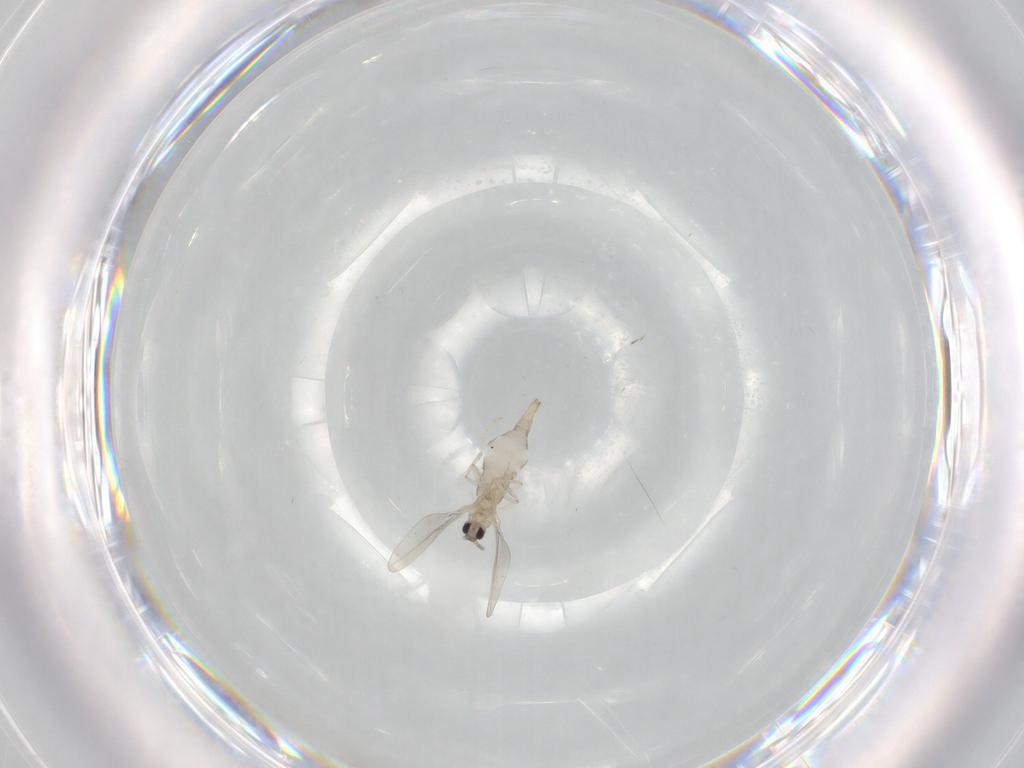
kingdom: Animalia
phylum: Arthropoda
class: Insecta
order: Diptera
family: Cecidomyiidae
